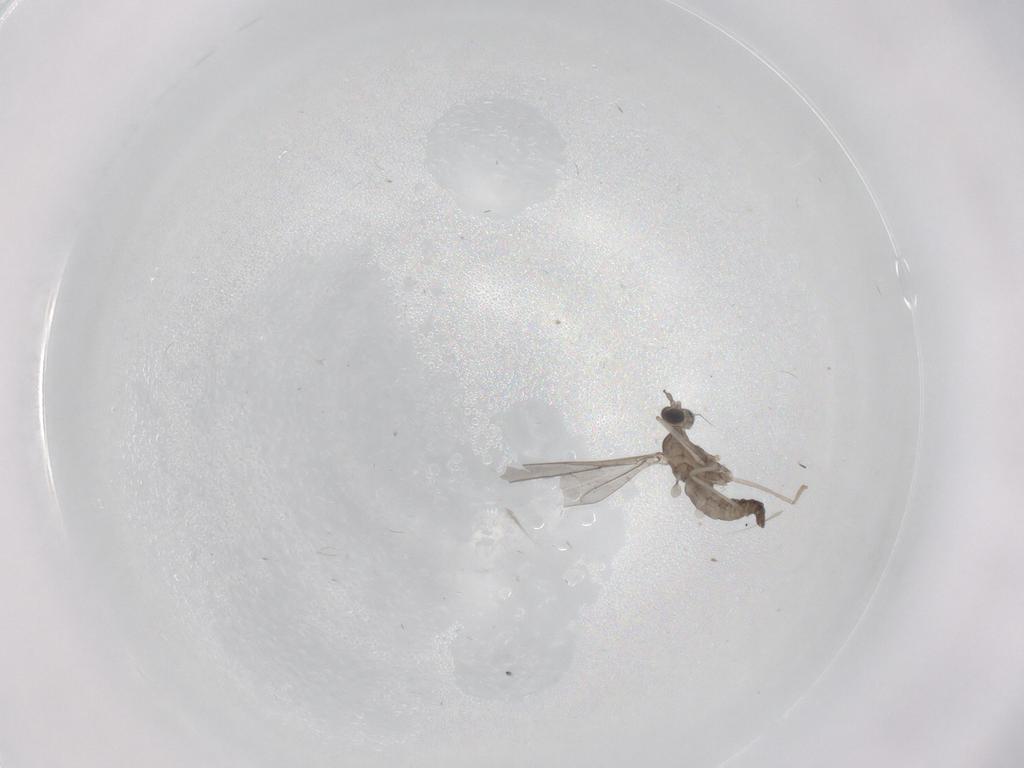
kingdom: Animalia
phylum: Arthropoda
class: Insecta
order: Diptera
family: Cecidomyiidae
